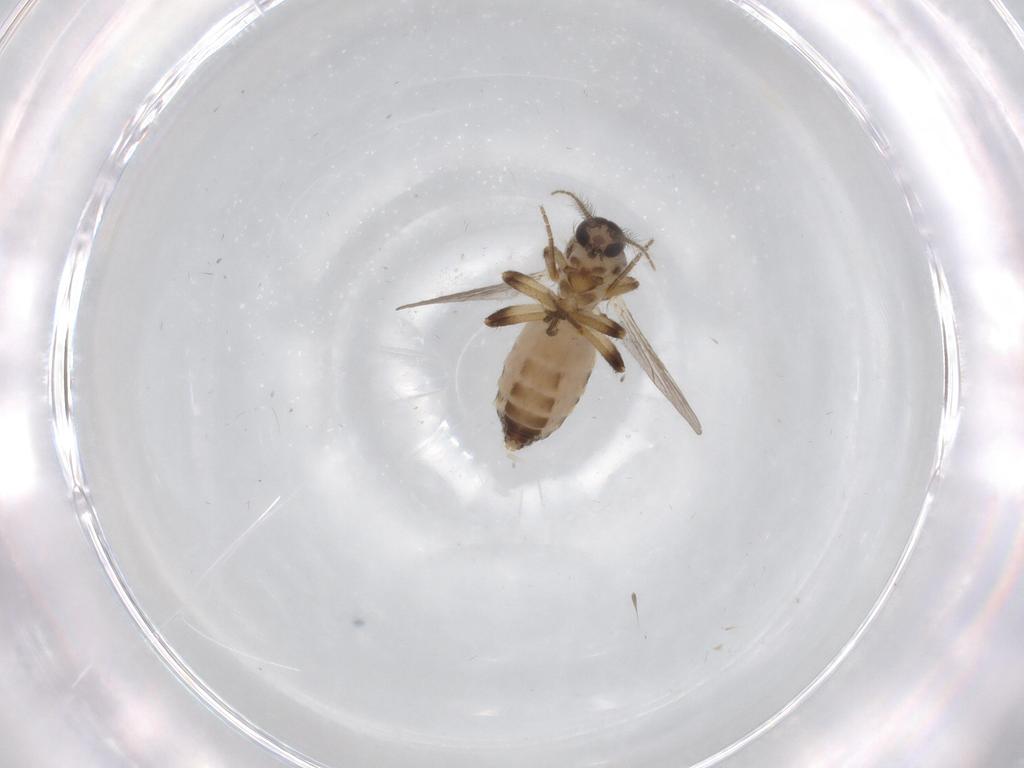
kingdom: Animalia
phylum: Arthropoda
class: Insecta
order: Diptera
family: Ceratopogonidae
